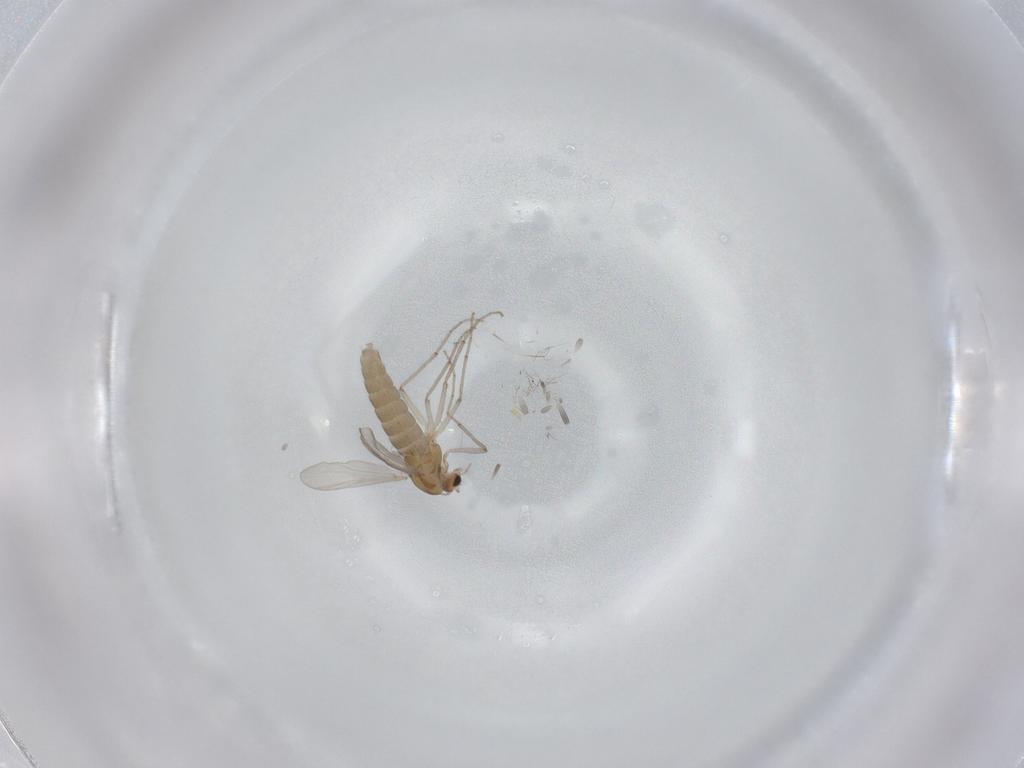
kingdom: Animalia
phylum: Arthropoda
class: Insecta
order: Diptera
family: Chironomidae
